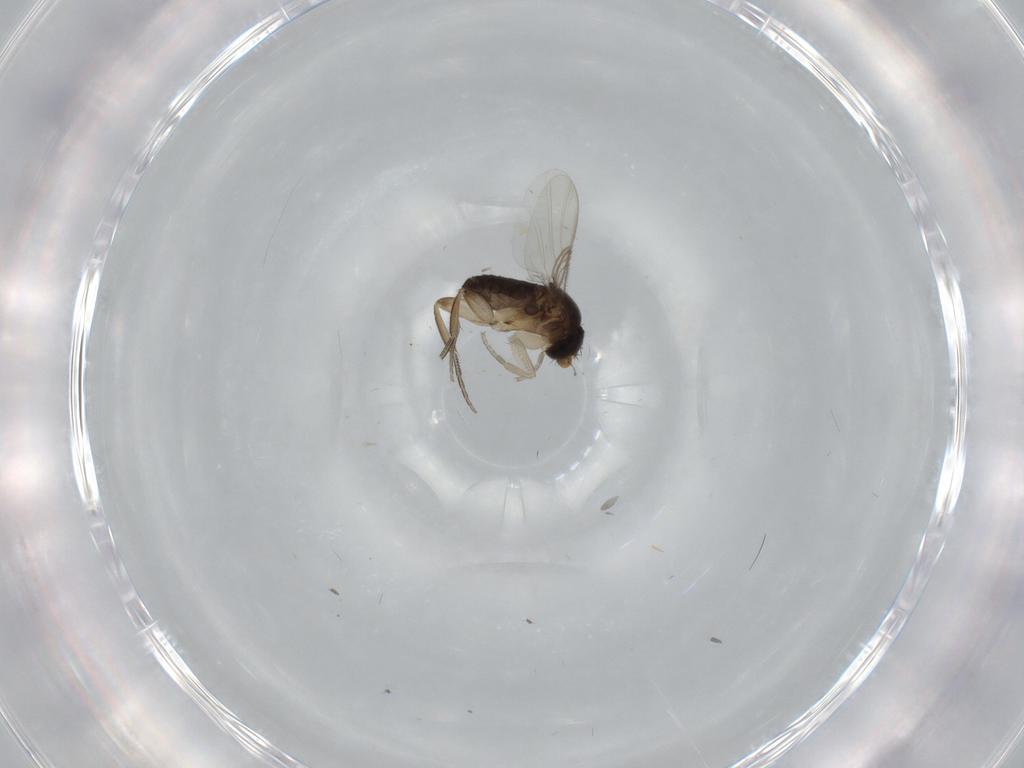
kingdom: Animalia
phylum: Arthropoda
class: Insecta
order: Diptera
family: Phoridae
